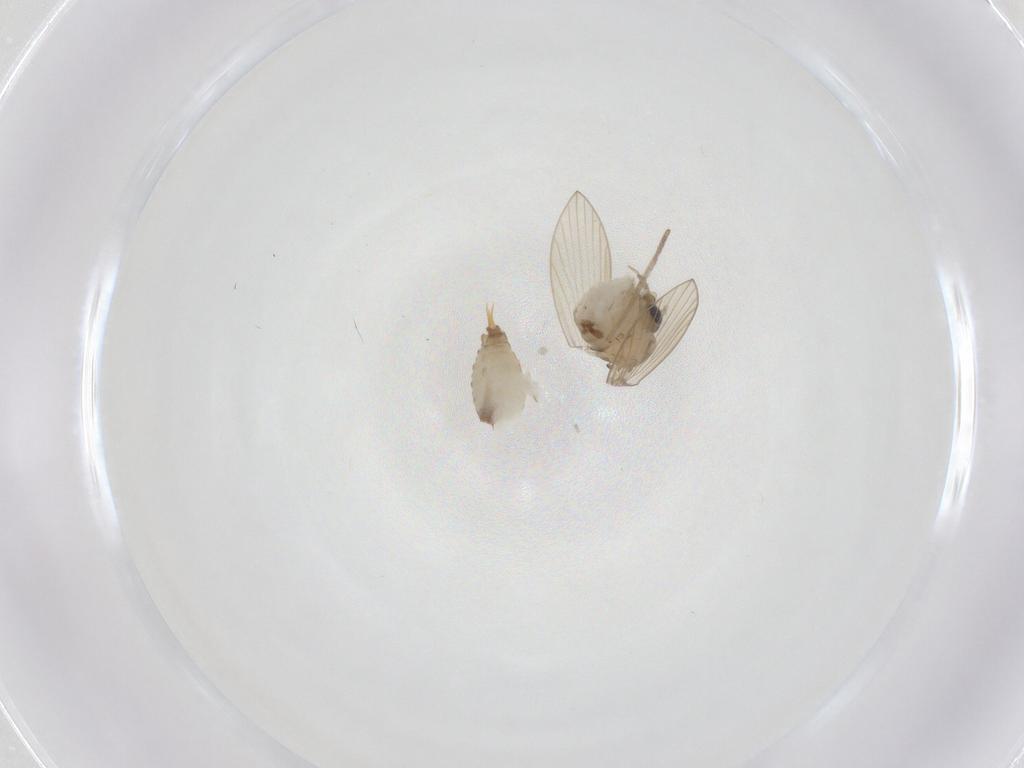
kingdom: Animalia
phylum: Arthropoda
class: Insecta
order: Diptera
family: Psychodidae
